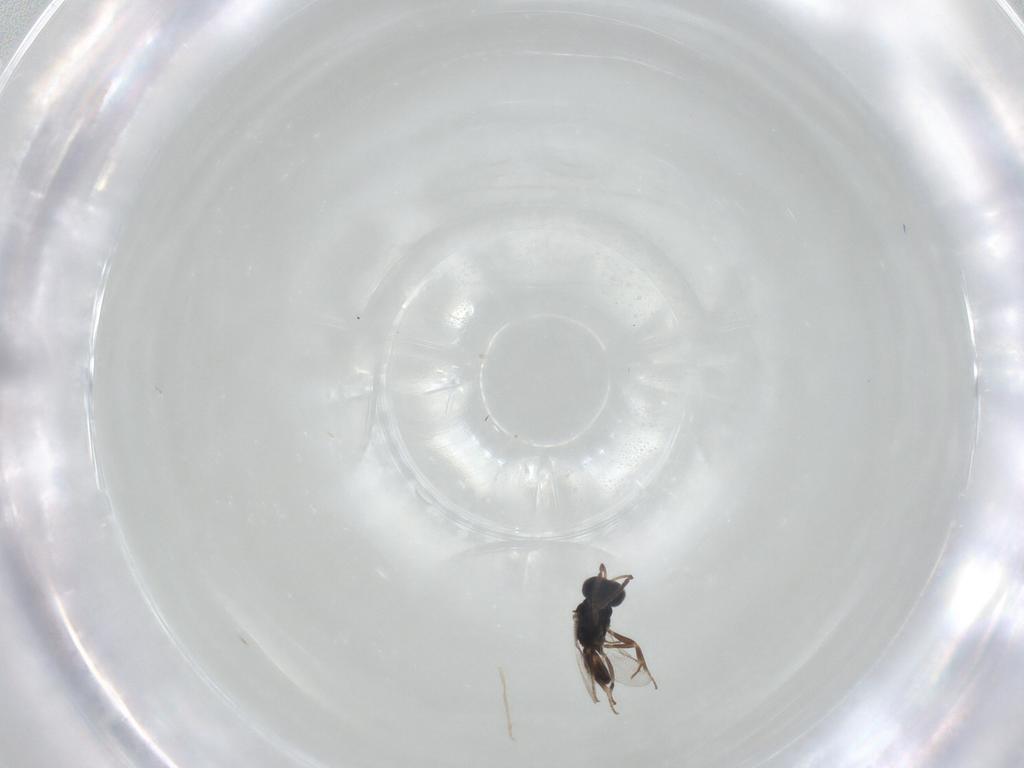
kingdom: Animalia
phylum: Arthropoda
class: Insecta
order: Hymenoptera
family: Pteromalidae
